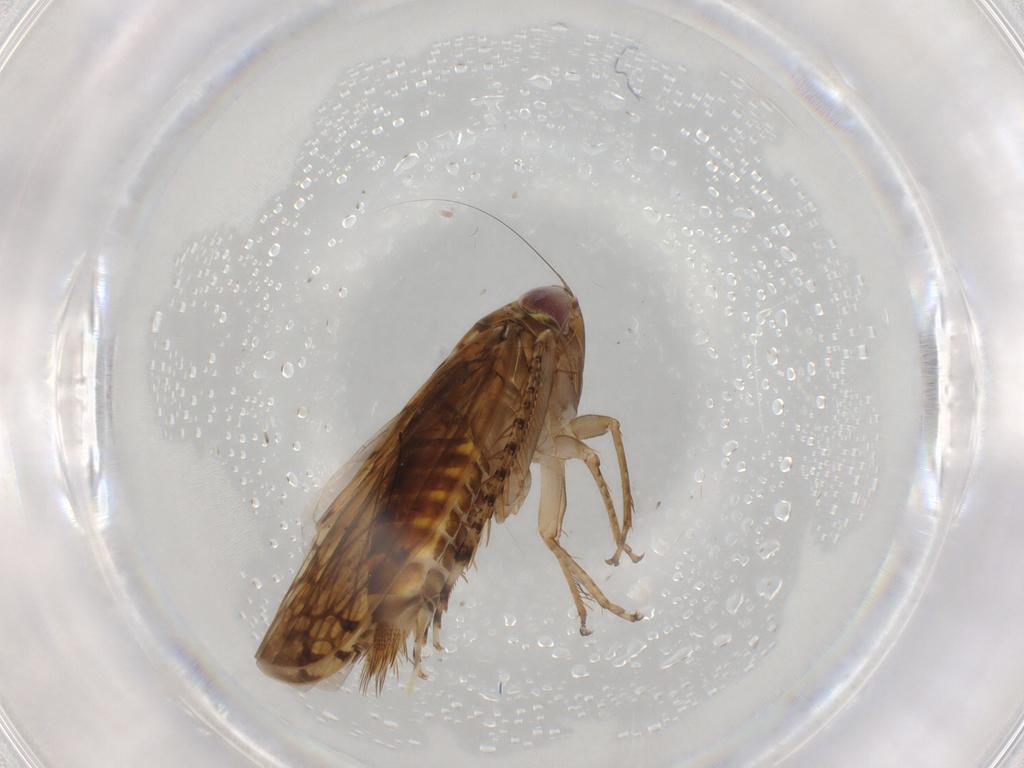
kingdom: Animalia
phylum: Arthropoda
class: Insecta
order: Hemiptera
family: Cicadellidae
